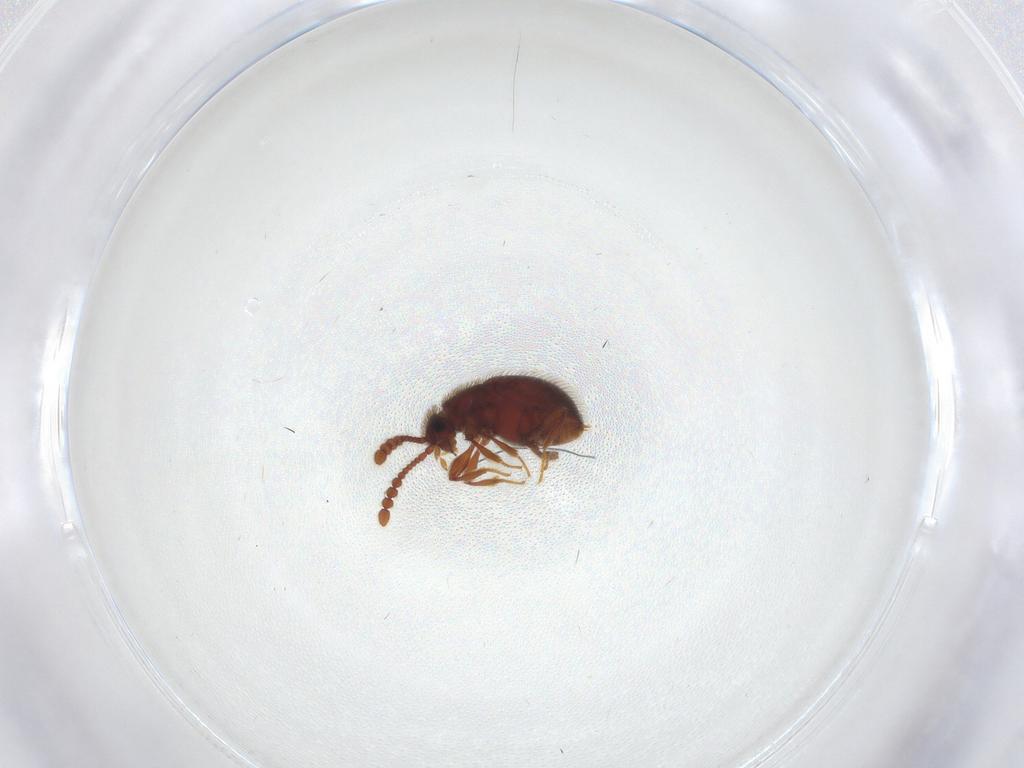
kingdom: Animalia
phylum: Arthropoda
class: Insecta
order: Coleoptera
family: Staphylinidae
